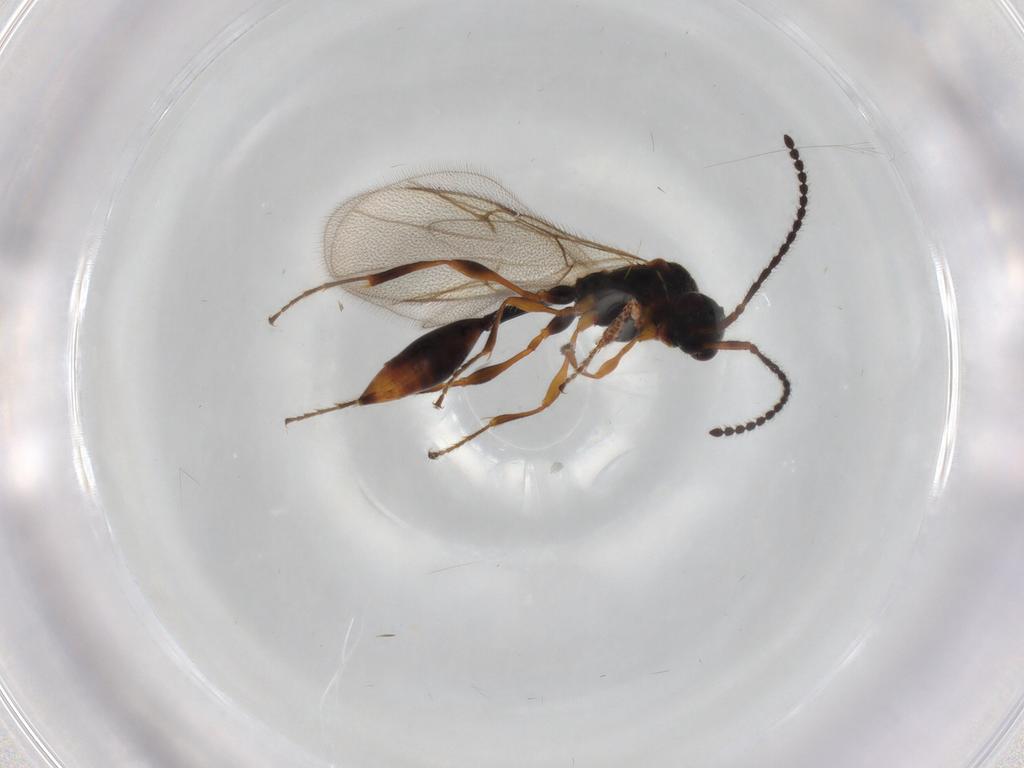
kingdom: Animalia
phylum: Arthropoda
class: Insecta
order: Hymenoptera
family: Diapriidae
